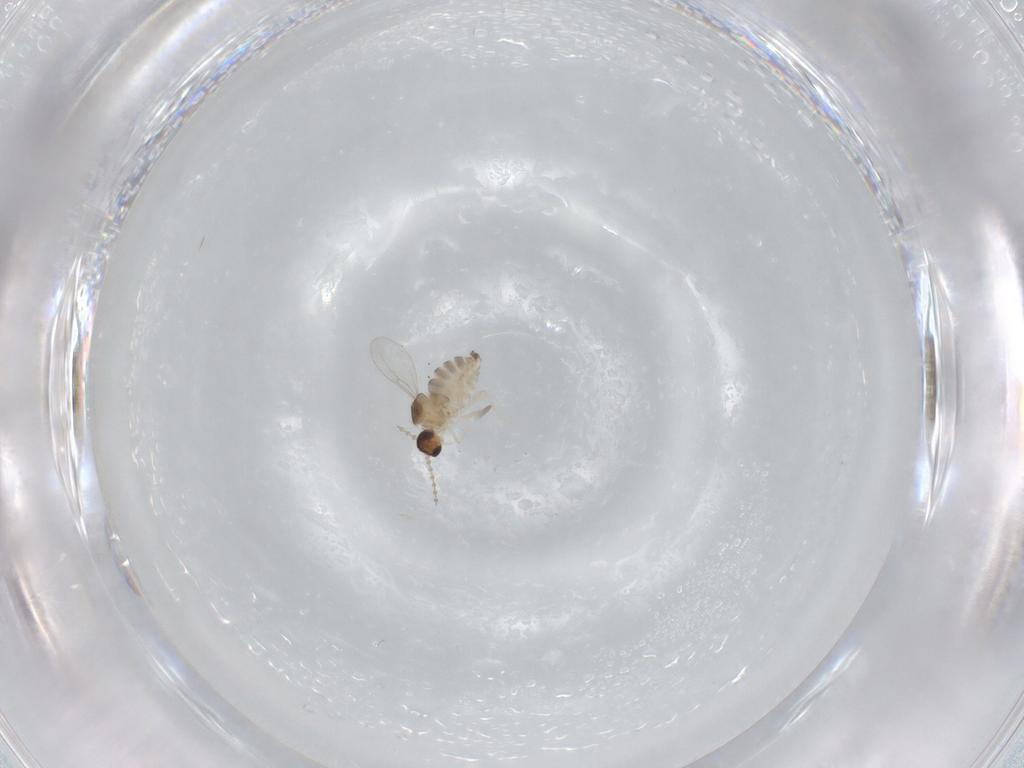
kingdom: Animalia
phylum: Arthropoda
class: Insecta
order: Diptera
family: Cecidomyiidae
